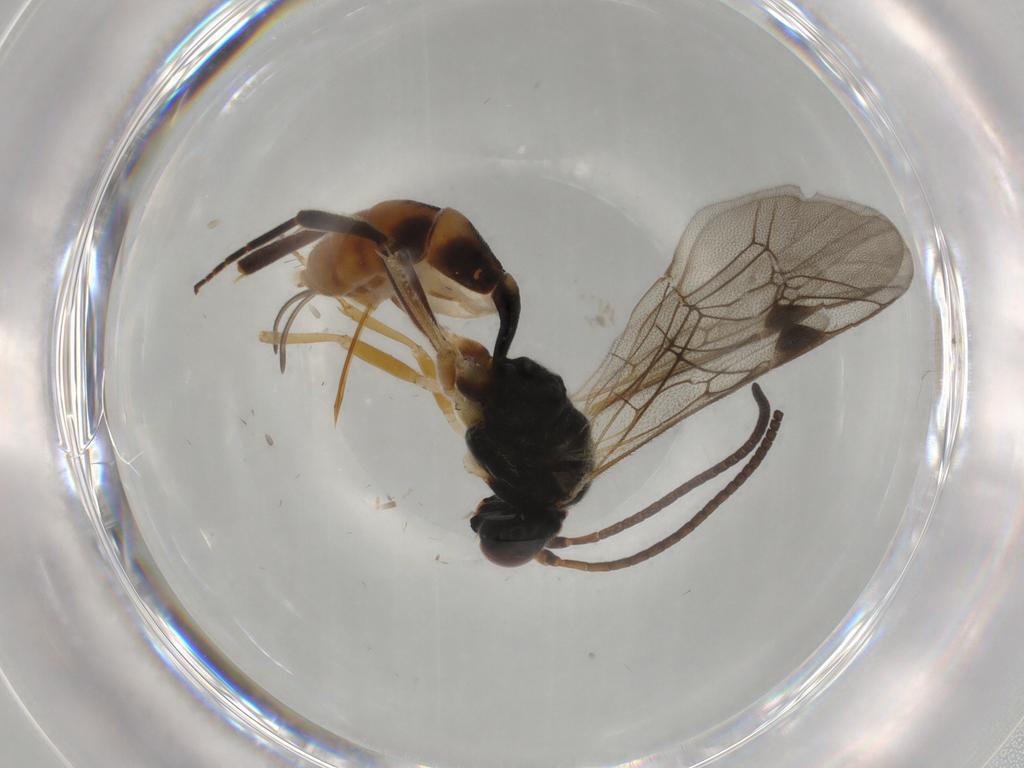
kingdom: Animalia
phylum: Arthropoda
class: Insecta
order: Hymenoptera
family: Ichneumonidae
